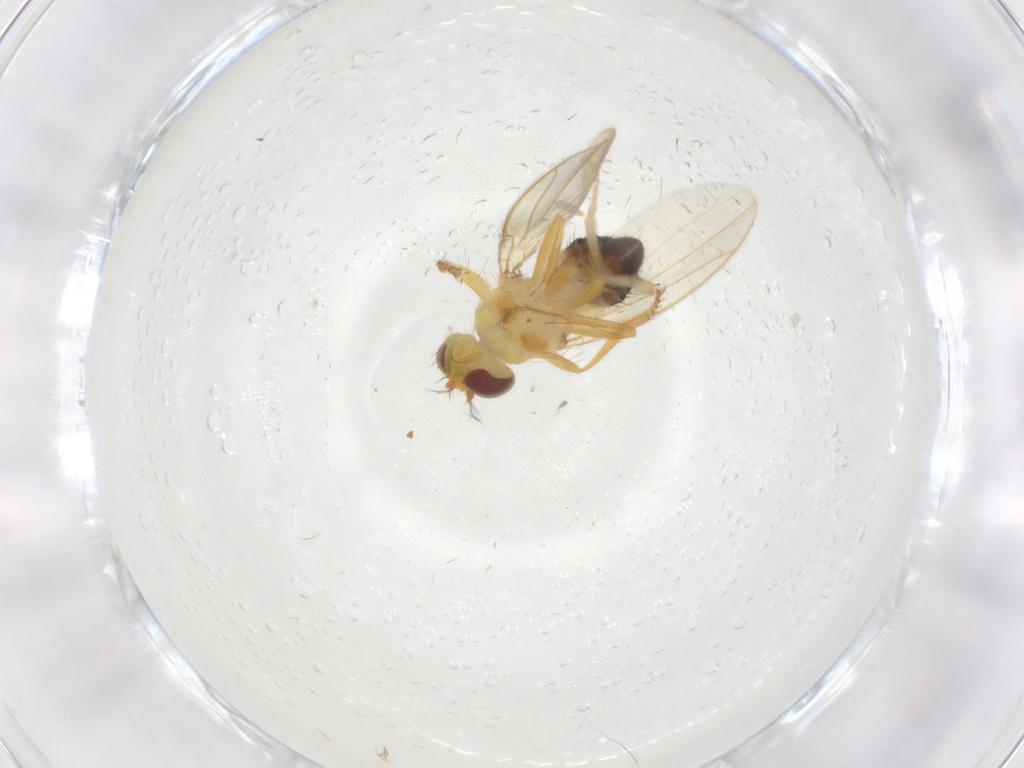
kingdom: Animalia
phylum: Arthropoda
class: Insecta
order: Diptera
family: Periscelididae
